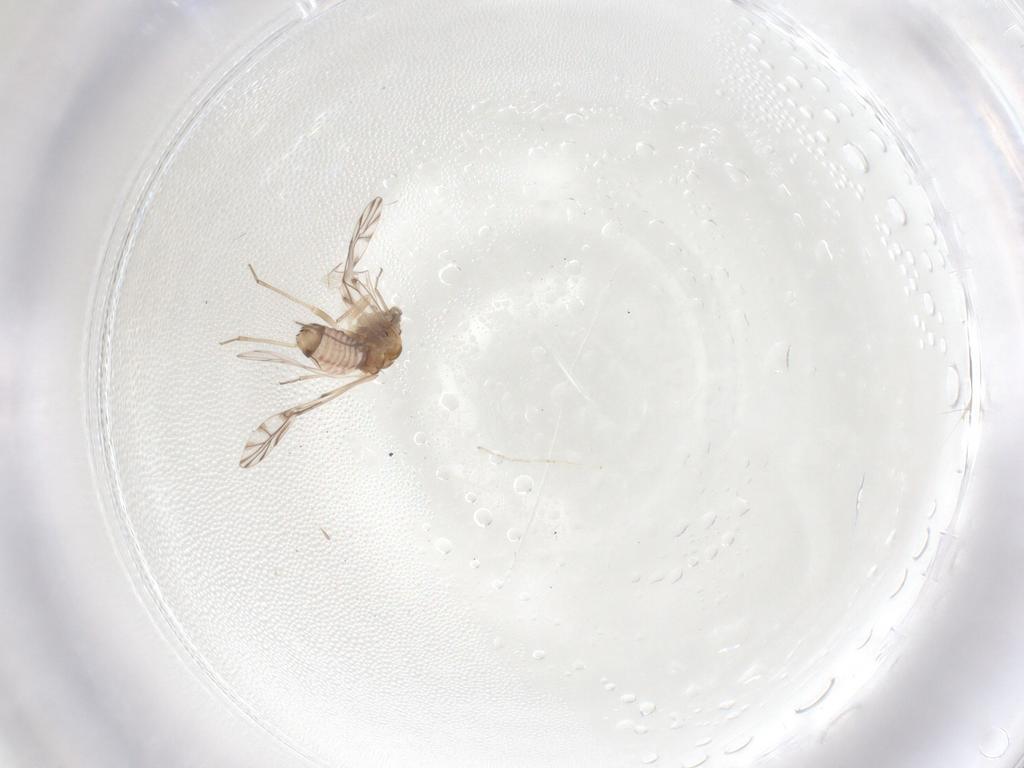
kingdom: Animalia
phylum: Arthropoda
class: Insecta
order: Psocodea
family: Lachesillidae
